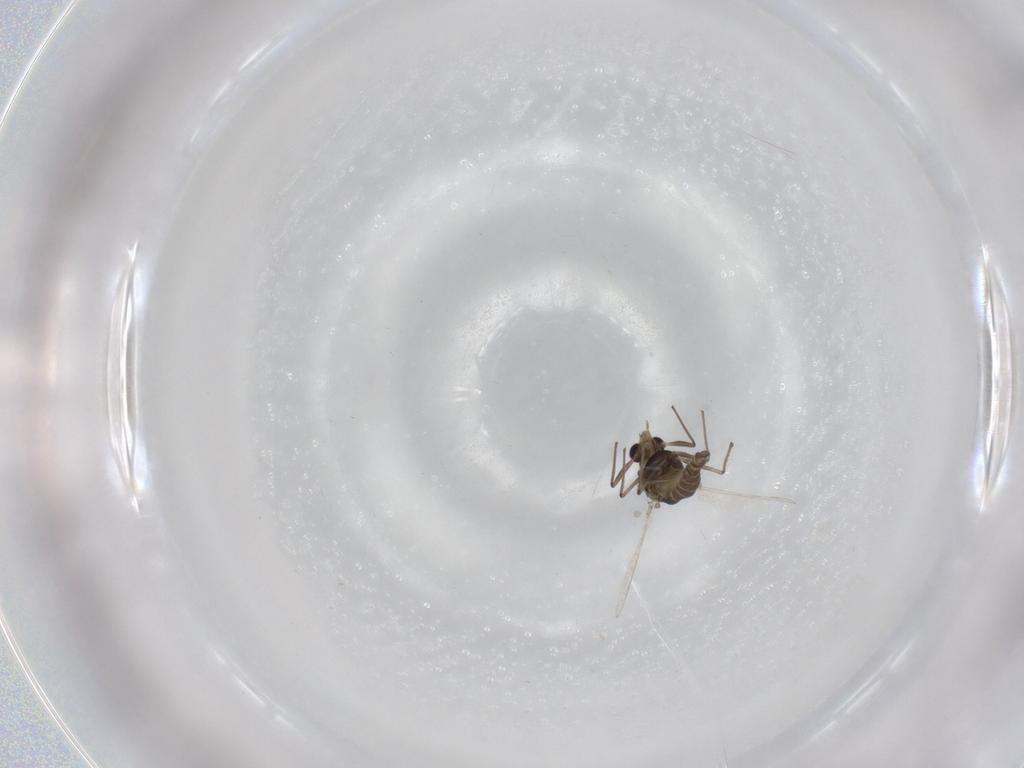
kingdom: Animalia
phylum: Arthropoda
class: Insecta
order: Diptera
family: Chironomidae
